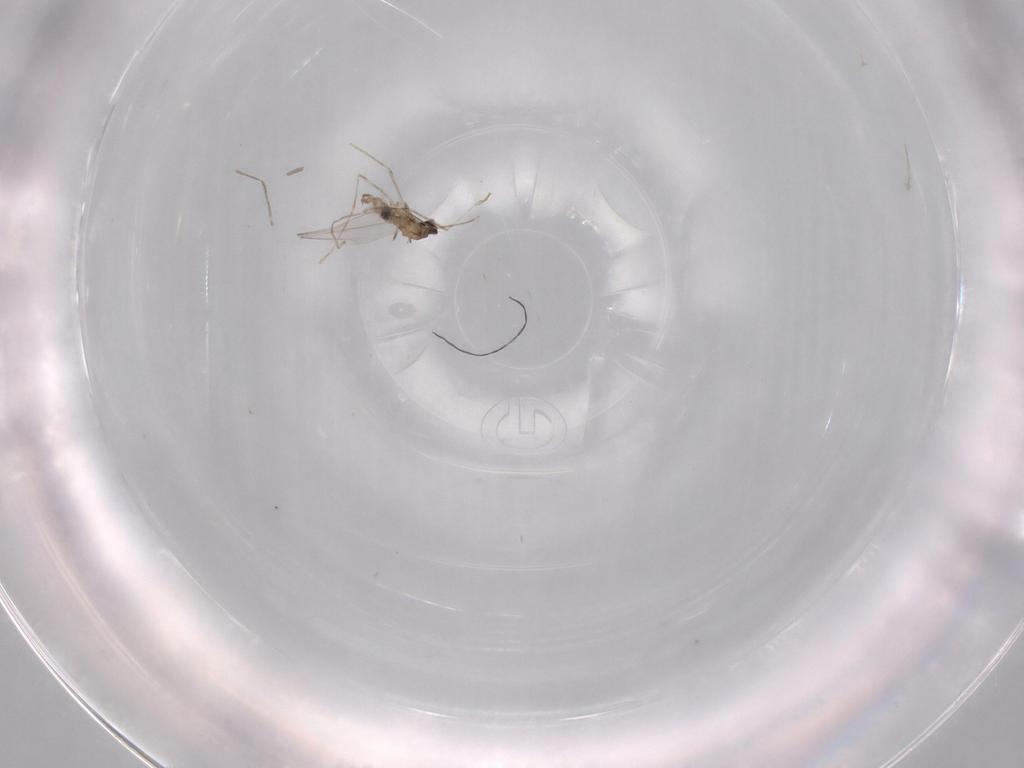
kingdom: Animalia
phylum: Arthropoda
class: Insecta
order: Diptera
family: Cecidomyiidae
